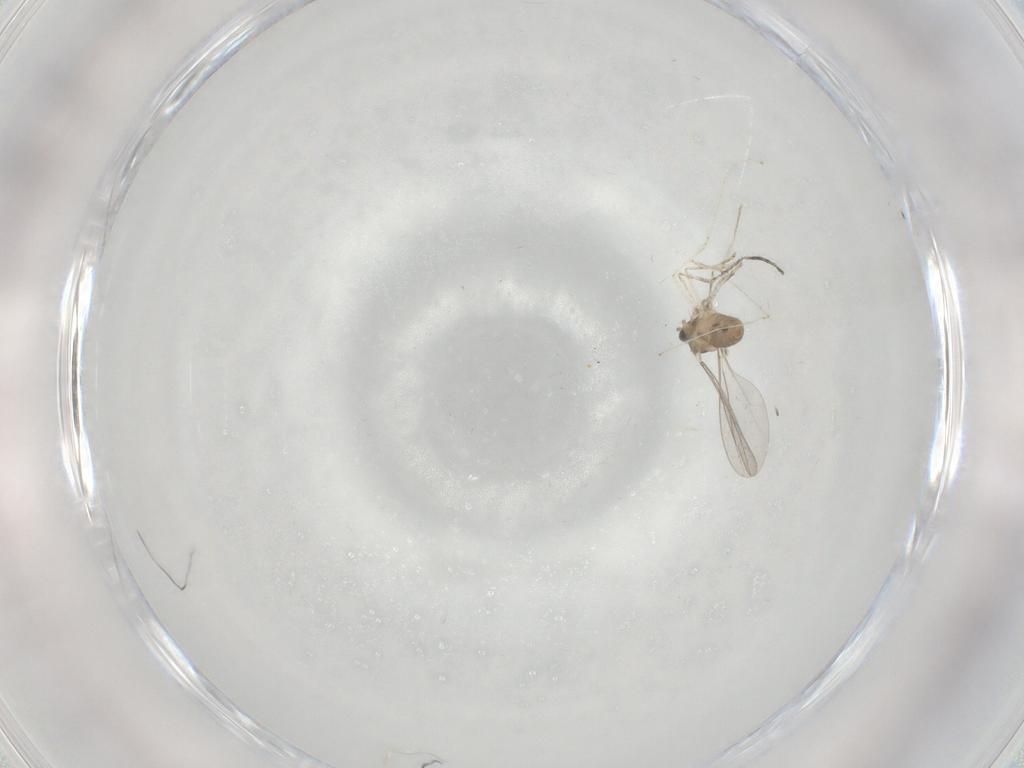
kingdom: Animalia
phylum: Arthropoda
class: Insecta
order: Diptera
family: Cecidomyiidae
